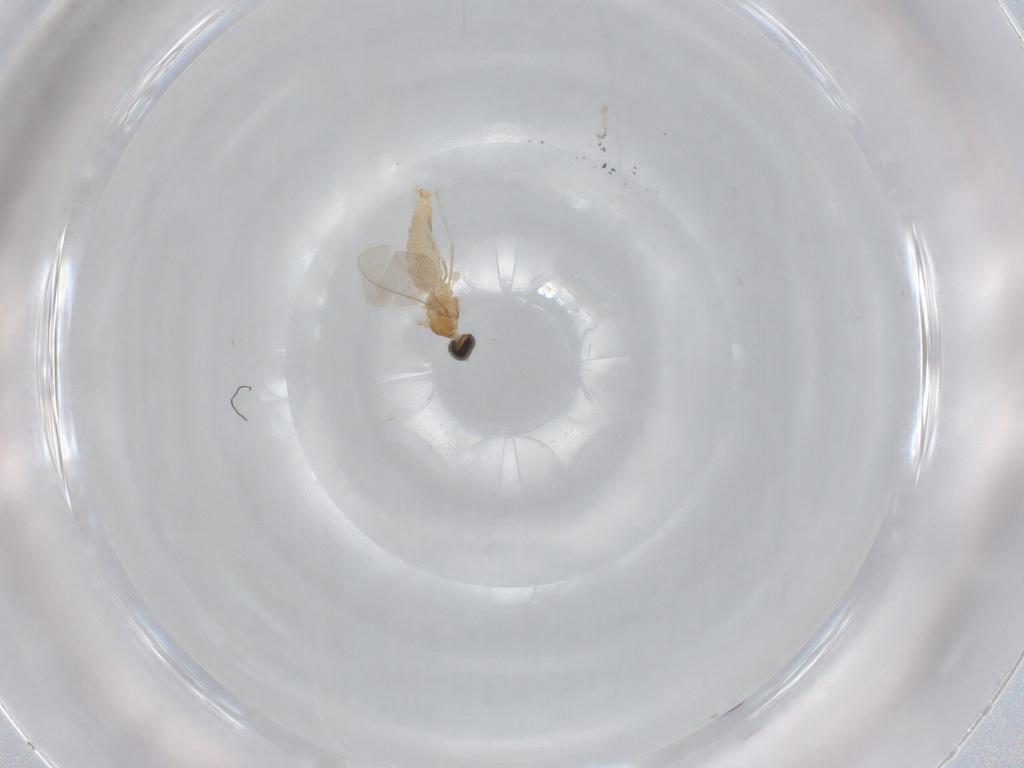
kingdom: Animalia
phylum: Arthropoda
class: Insecta
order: Diptera
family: Cecidomyiidae
